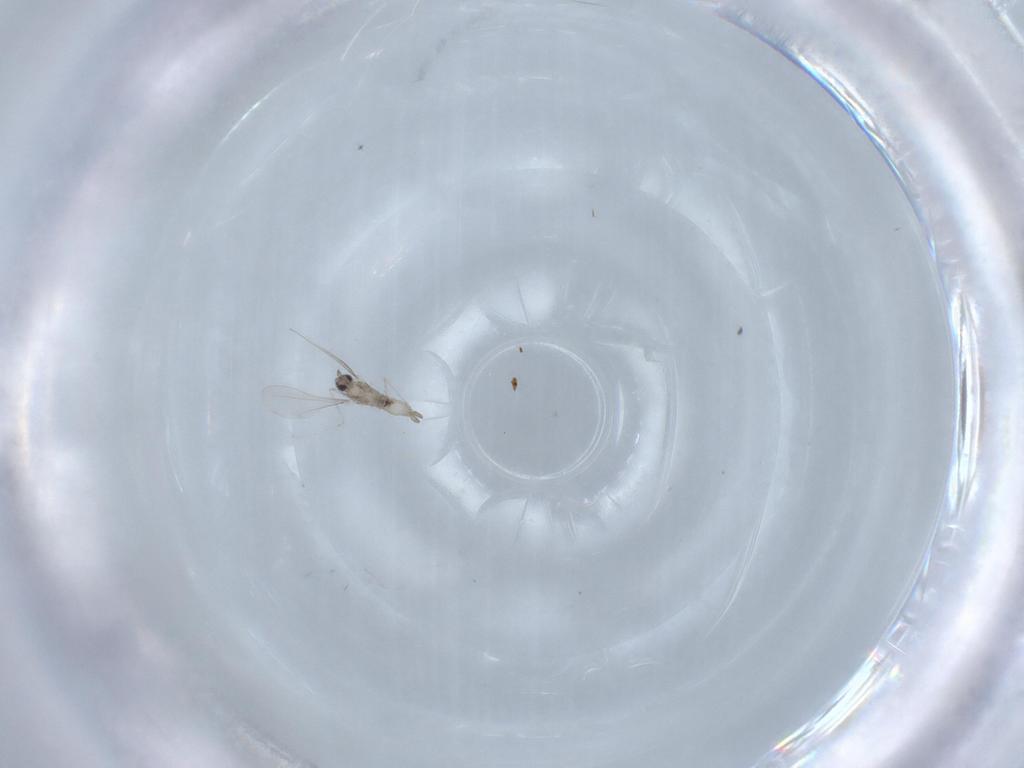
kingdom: Animalia
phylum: Arthropoda
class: Insecta
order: Diptera
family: Cecidomyiidae
